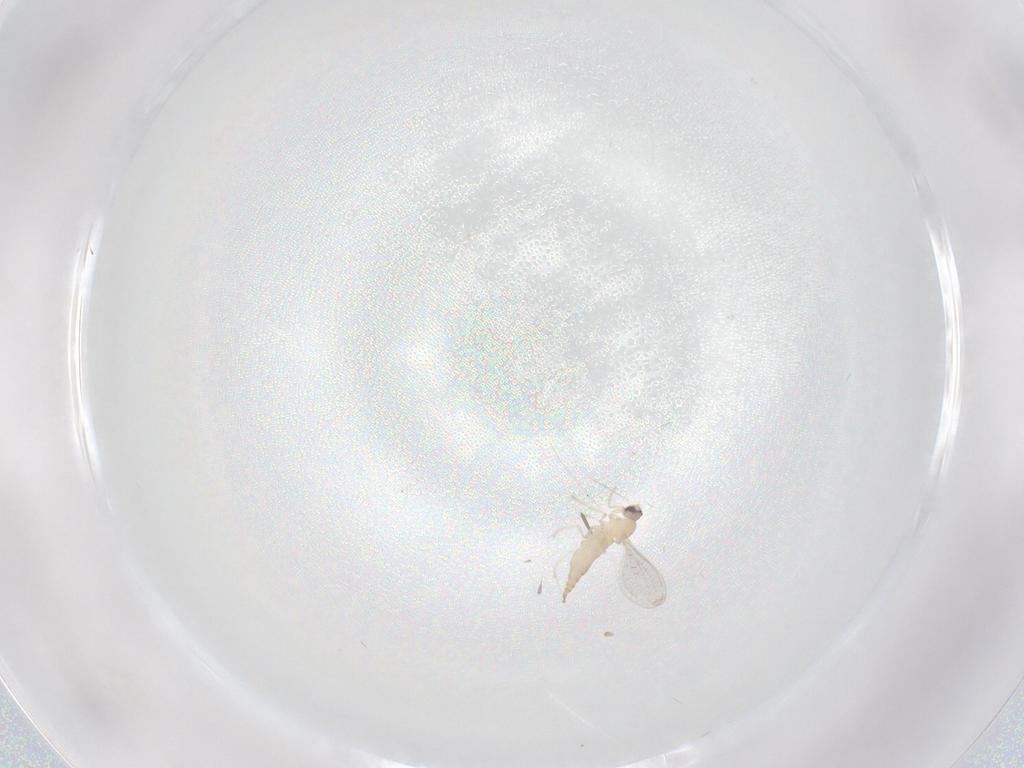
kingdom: Animalia
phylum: Arthropoda
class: Insecta
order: Diptera
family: Cecidomyiidae
